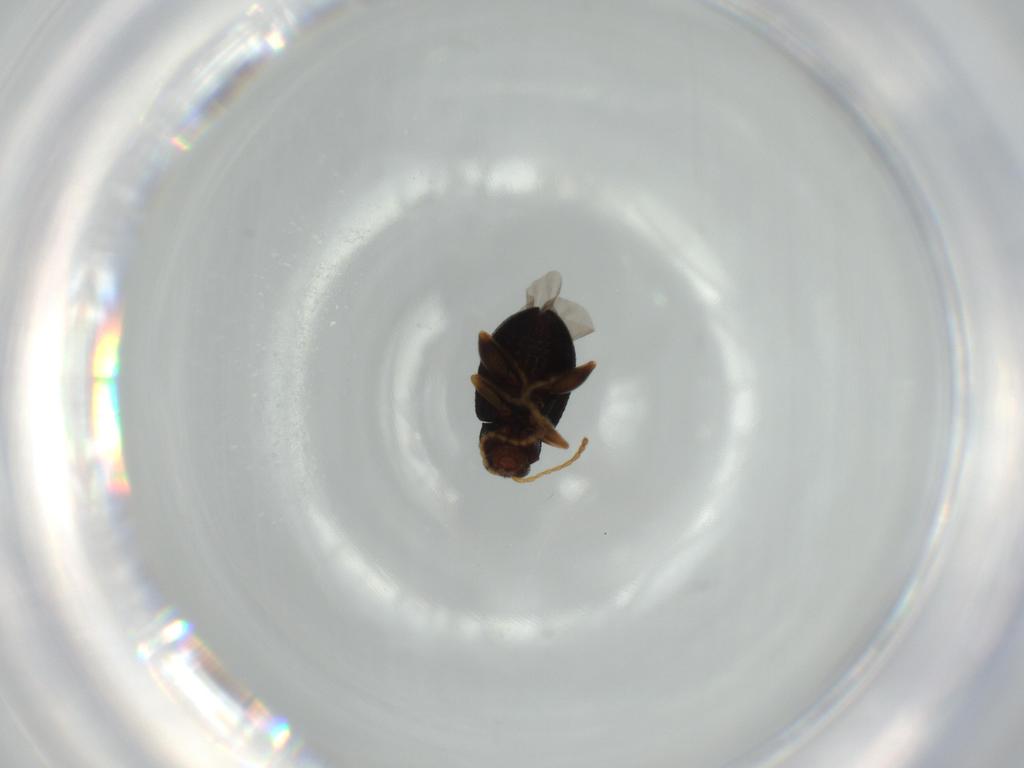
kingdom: Animalia
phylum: Arthropoda
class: Insecta
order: Coleoptera
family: Chrysomelidae
